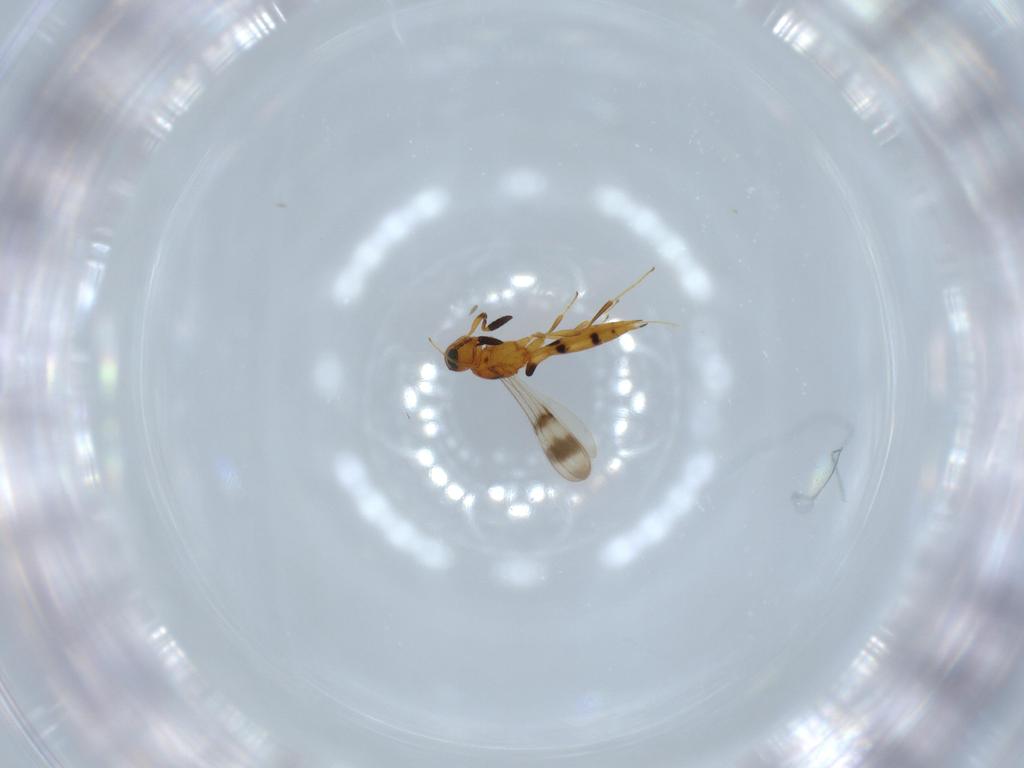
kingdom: Animalia
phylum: Arthropoda
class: Insecta
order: Hymenoptera
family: Scelionidae
